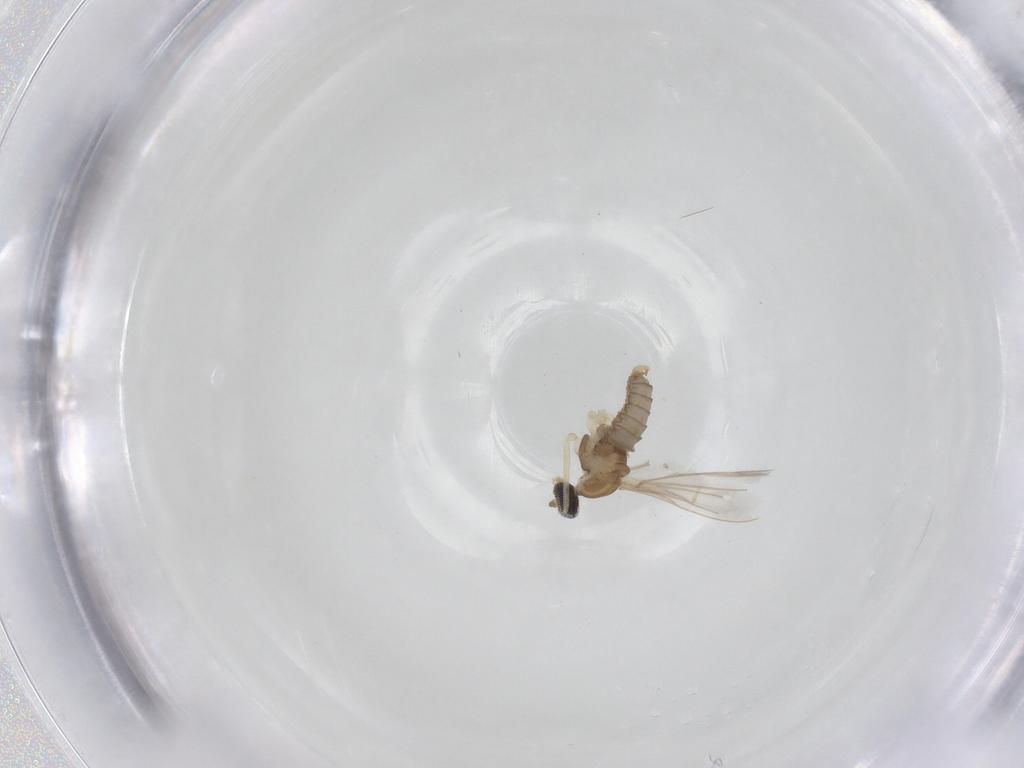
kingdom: Animalia
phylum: Arthropoda
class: Insecta
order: Diptera
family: Cecidomyiidae
